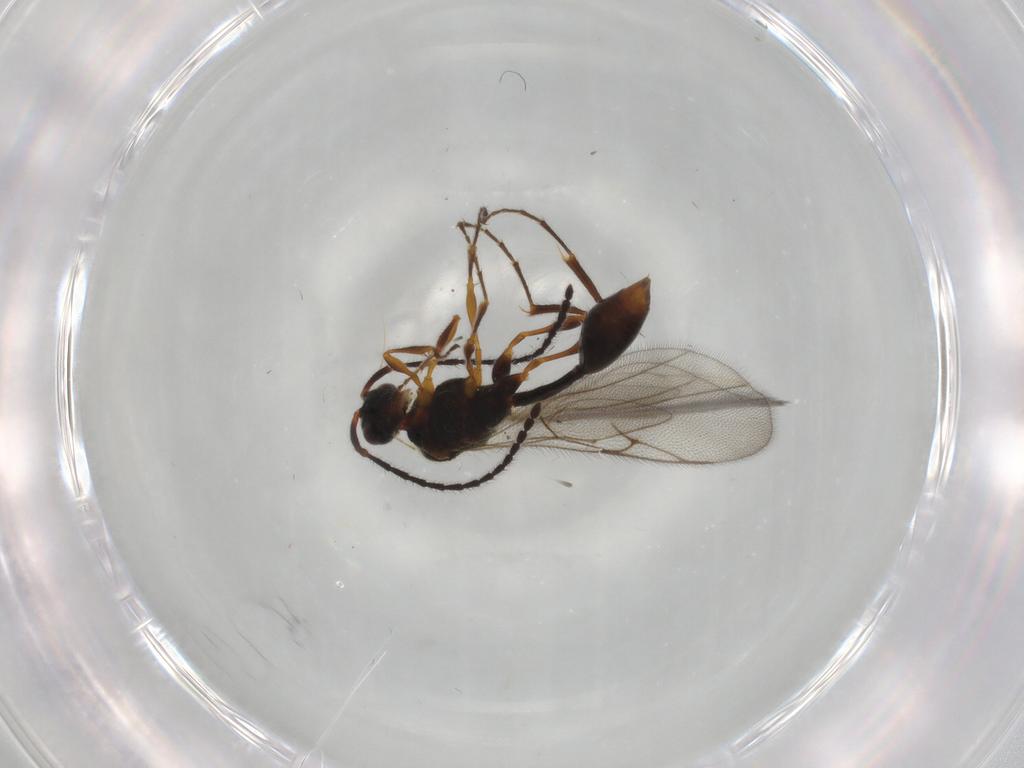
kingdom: Animalia
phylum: Arthropoda
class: Insecta
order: Hymenoptera
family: Diapriidae
